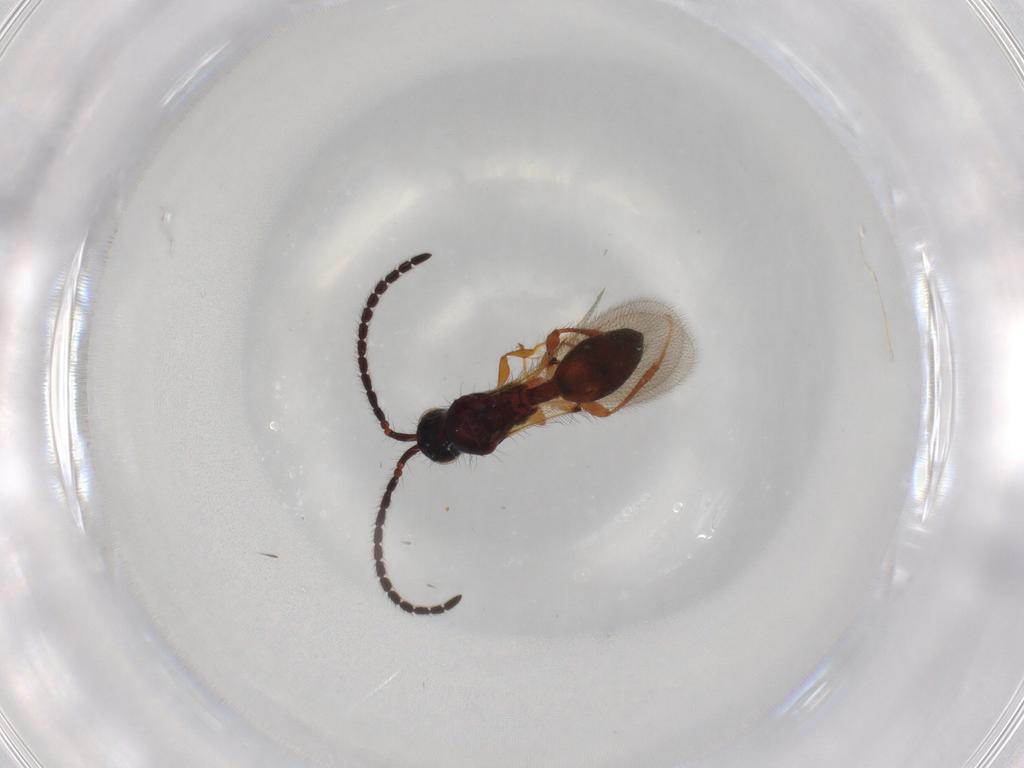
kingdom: Animalia
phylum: Arthropoda
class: Insecta
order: Hymenoptera
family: Diapriidae
